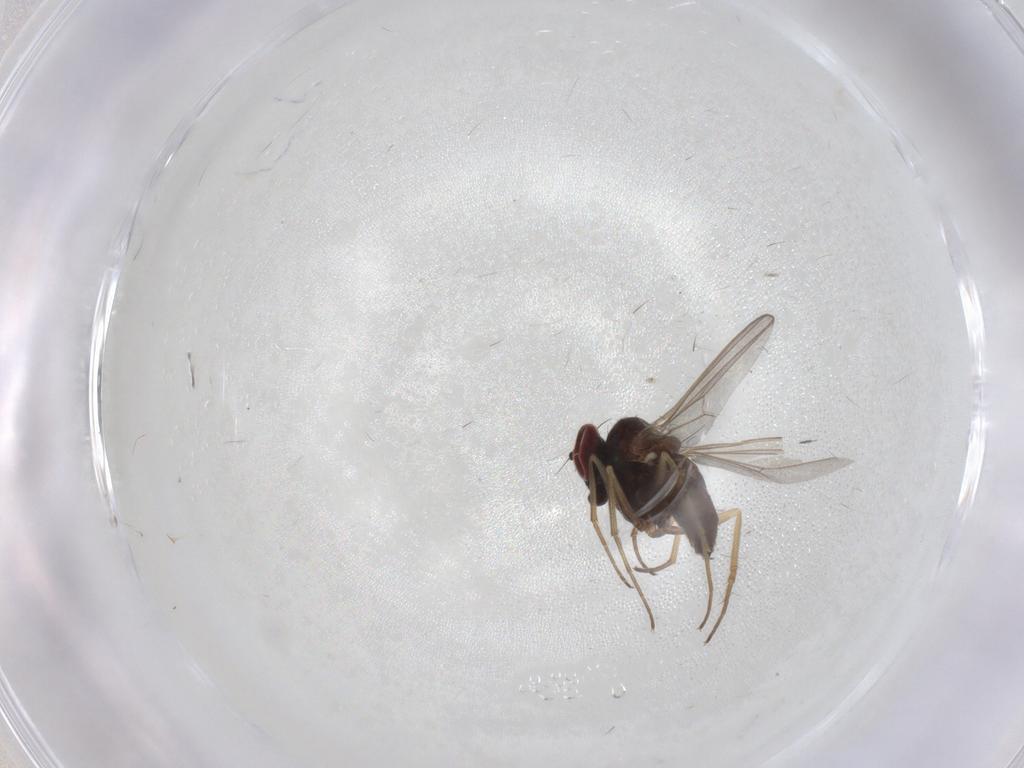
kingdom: Animalia
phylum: Arthropoda
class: Insecta
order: Diptera
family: Dolichopodidae
